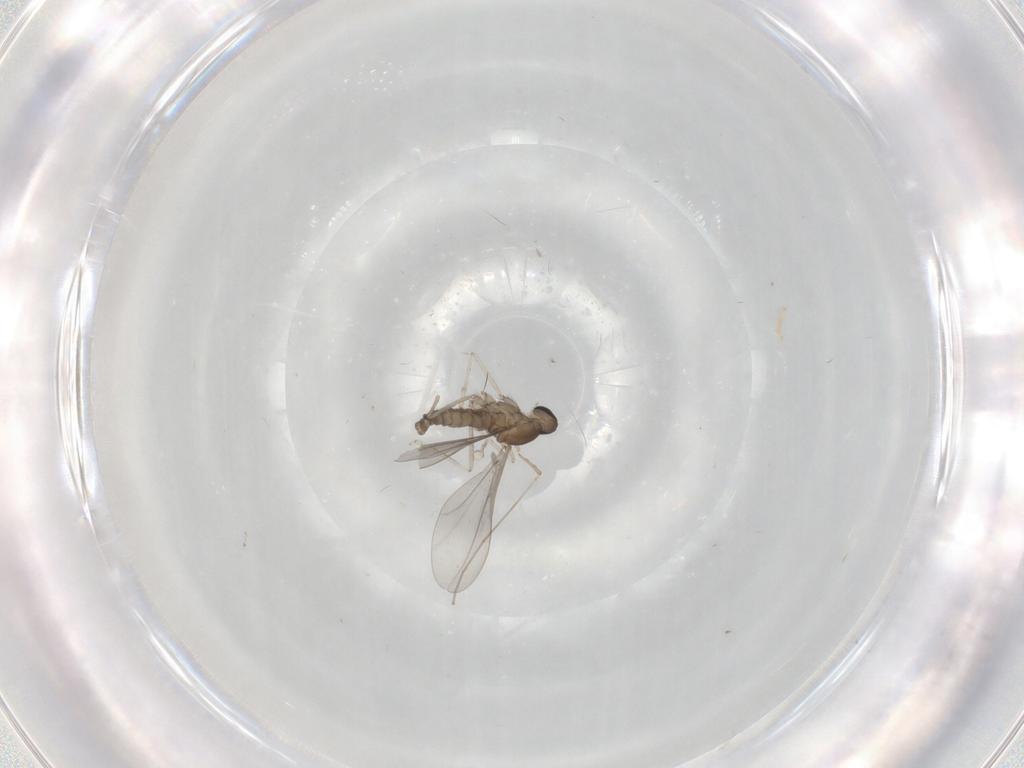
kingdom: Animalia
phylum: Arthropoda
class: Insecta
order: Diptera
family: Cecidomyiidae
